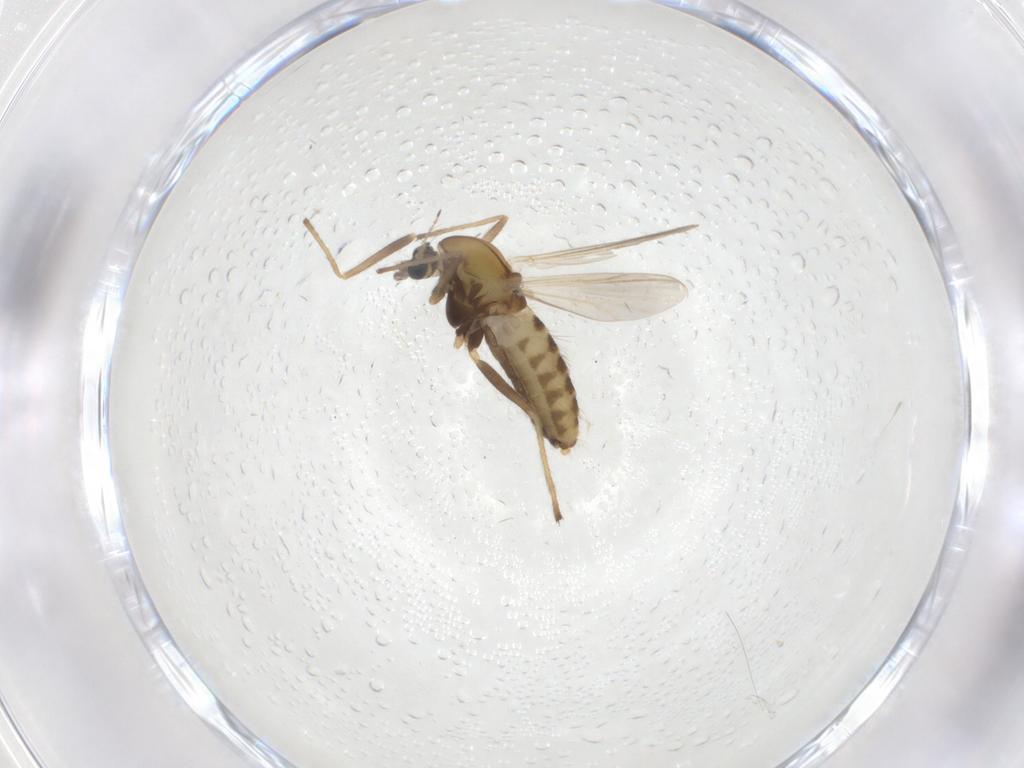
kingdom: Animalia
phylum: Arthropoda
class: Insecta
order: Diptera
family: Chironomidae
